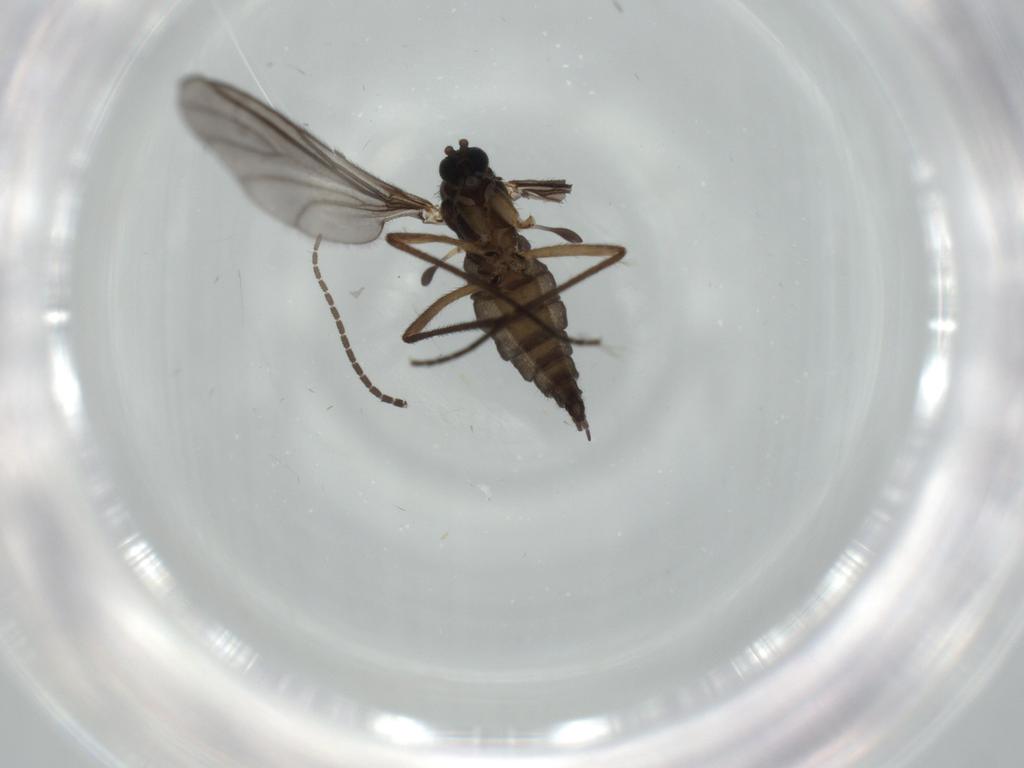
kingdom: Animalia
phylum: Arthropoda
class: Insecta
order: Diptera
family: Sciaridae
